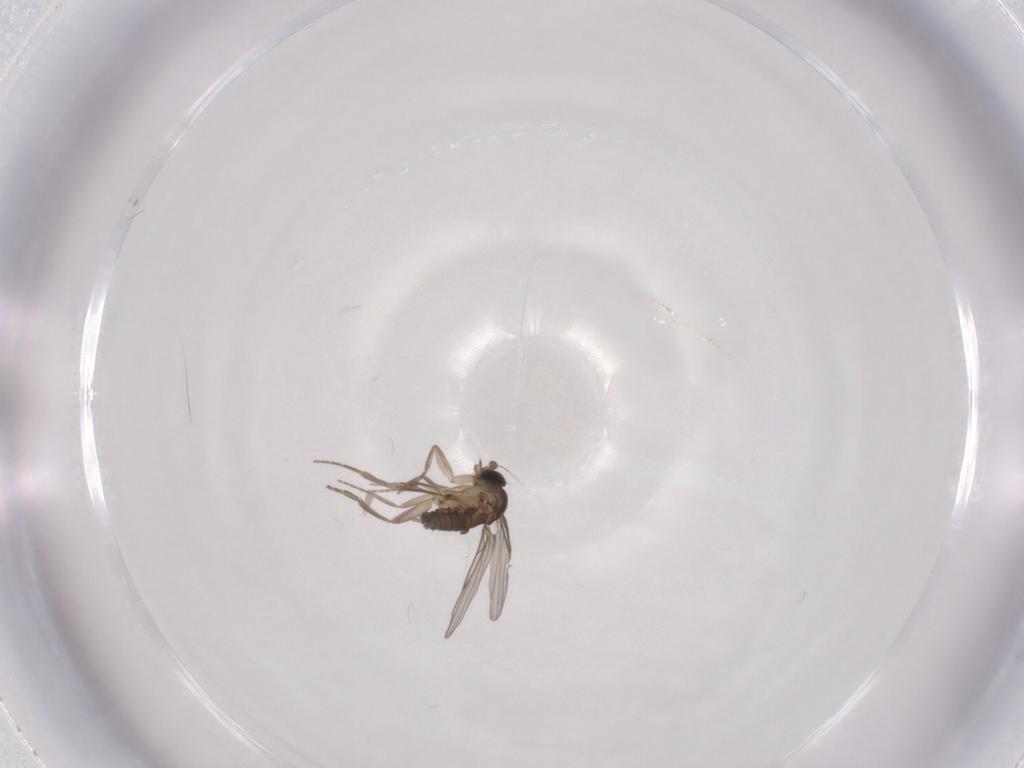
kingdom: Animalia
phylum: Arthropoda
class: Insecta
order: Diptera
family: Phoridae
